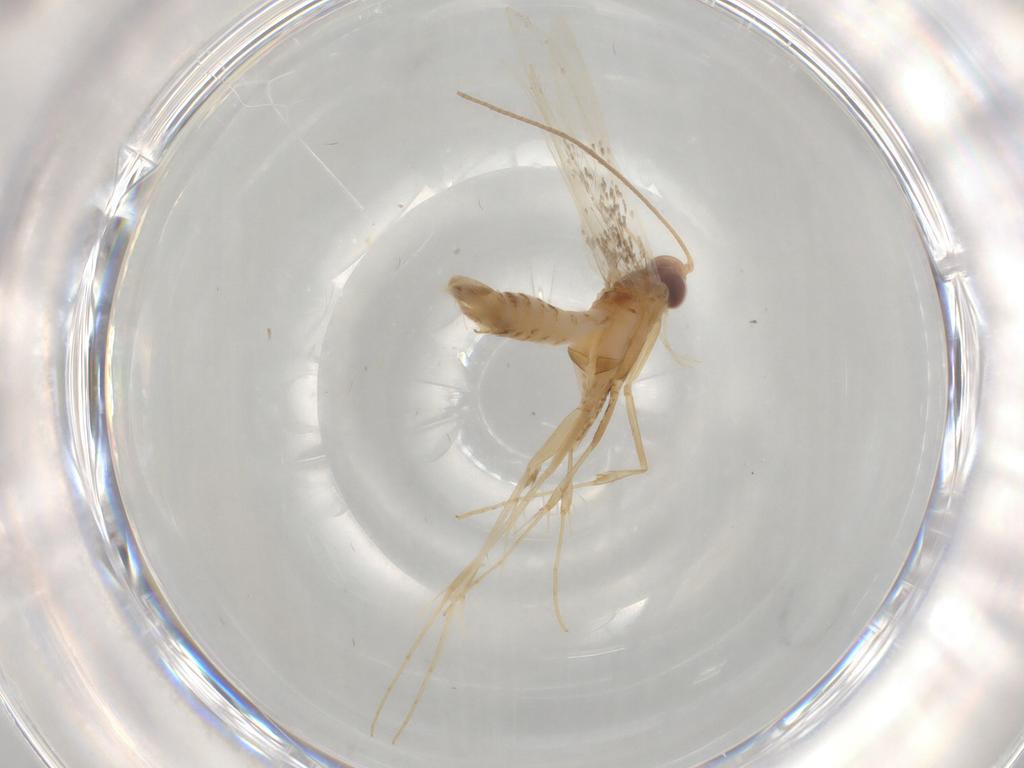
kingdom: Animalia
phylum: Arthropoda
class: Insecta
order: Lepidoptera
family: Gracillariidae
